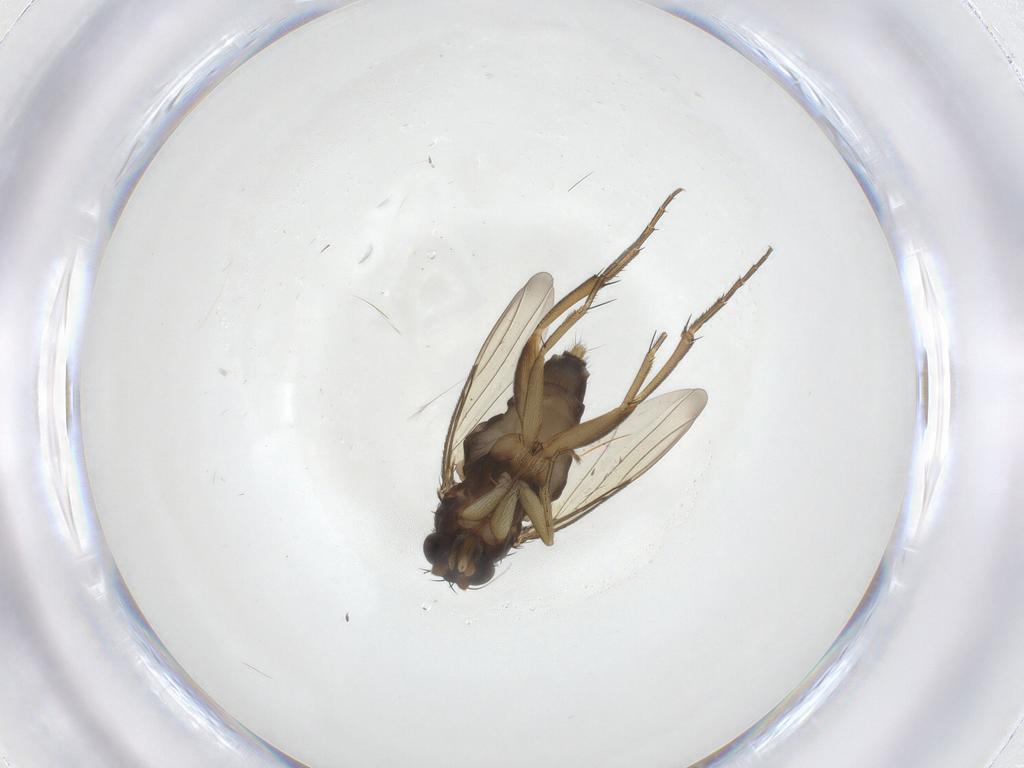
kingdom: Animalia
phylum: Arthropoda
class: Insecta
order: Diptera
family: Phoridae
